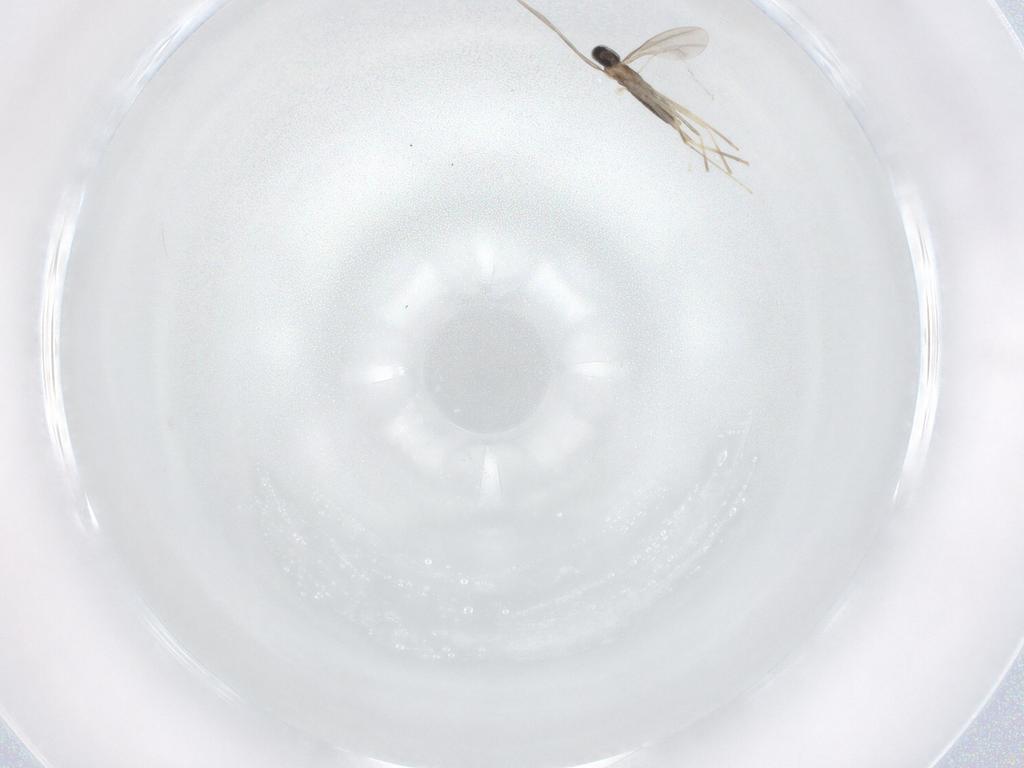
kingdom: Animalia
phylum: Arthropoda
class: Insecta
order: Diptera
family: Cecidomyiidae
